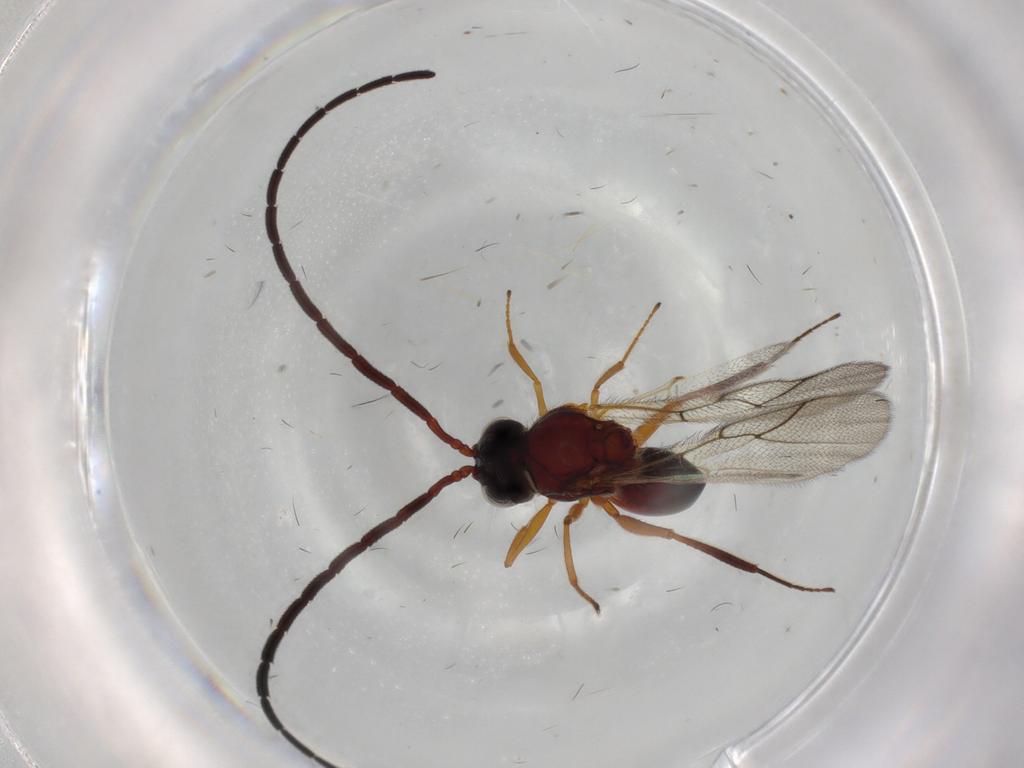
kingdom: Animalia
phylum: Arthropoda
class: Insecta
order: Hymenoptera
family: Figitidae
